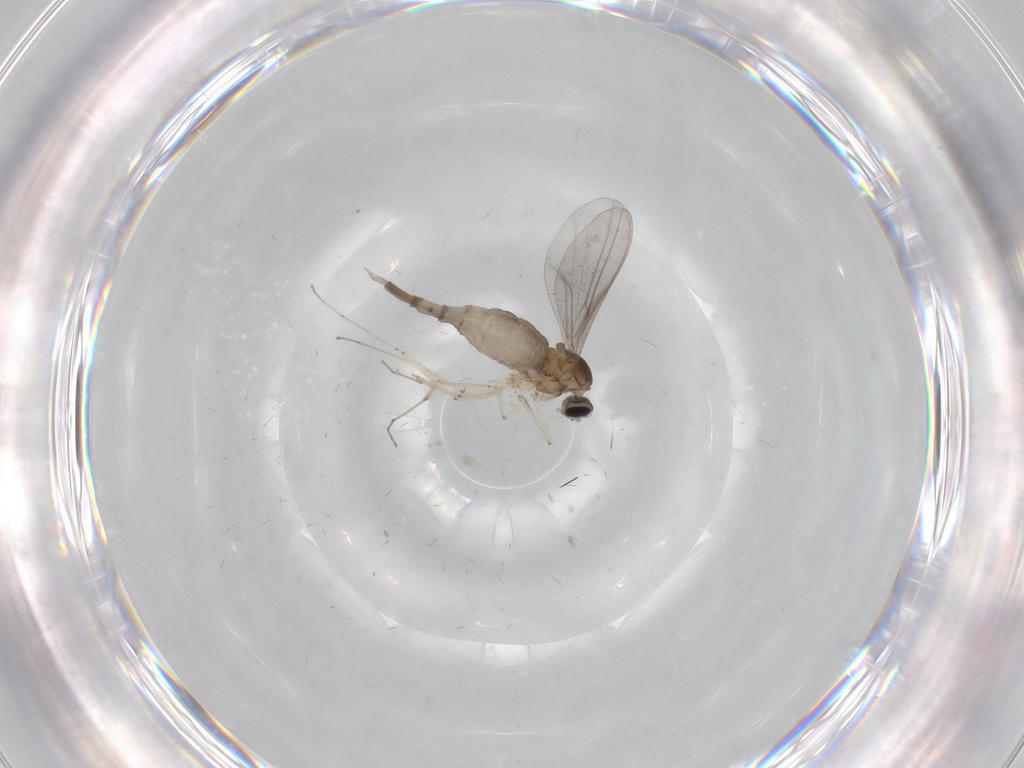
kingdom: Animalia
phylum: Arthropoda
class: Insecta
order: Diptera
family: Cecidomyiidae
